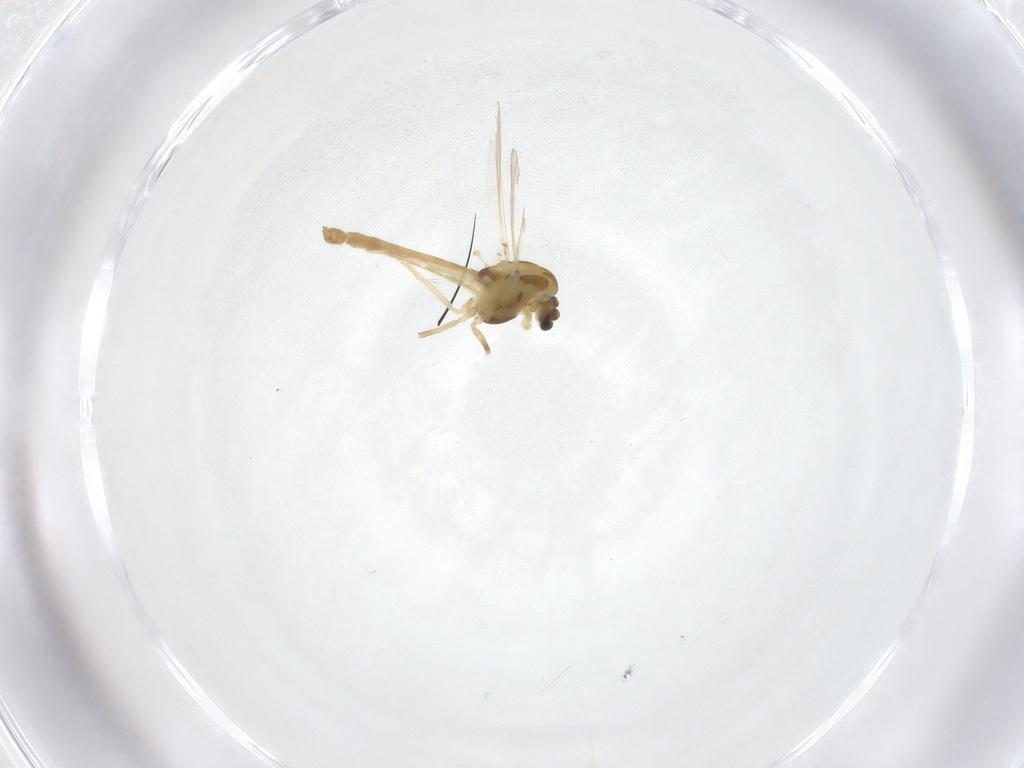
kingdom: Animalia
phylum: Arthropoda
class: Insecta
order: Diptera
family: Chironomidae
